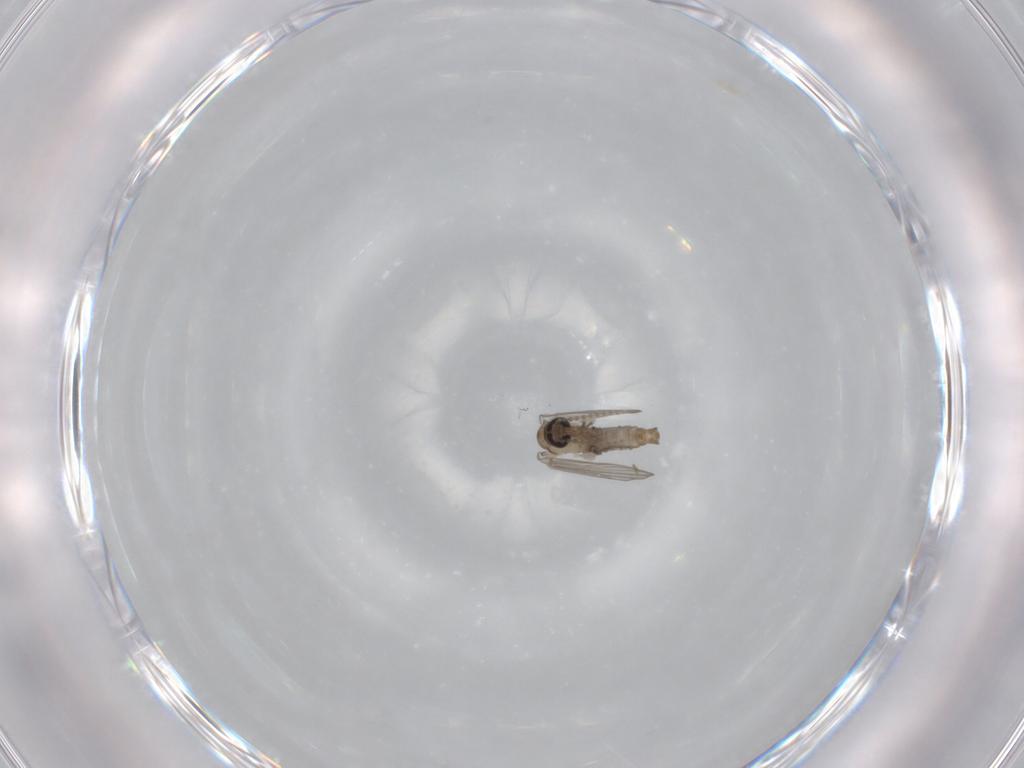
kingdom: Animalia
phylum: Arthropoda
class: Insecta
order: Diptera
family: Psychodidae
